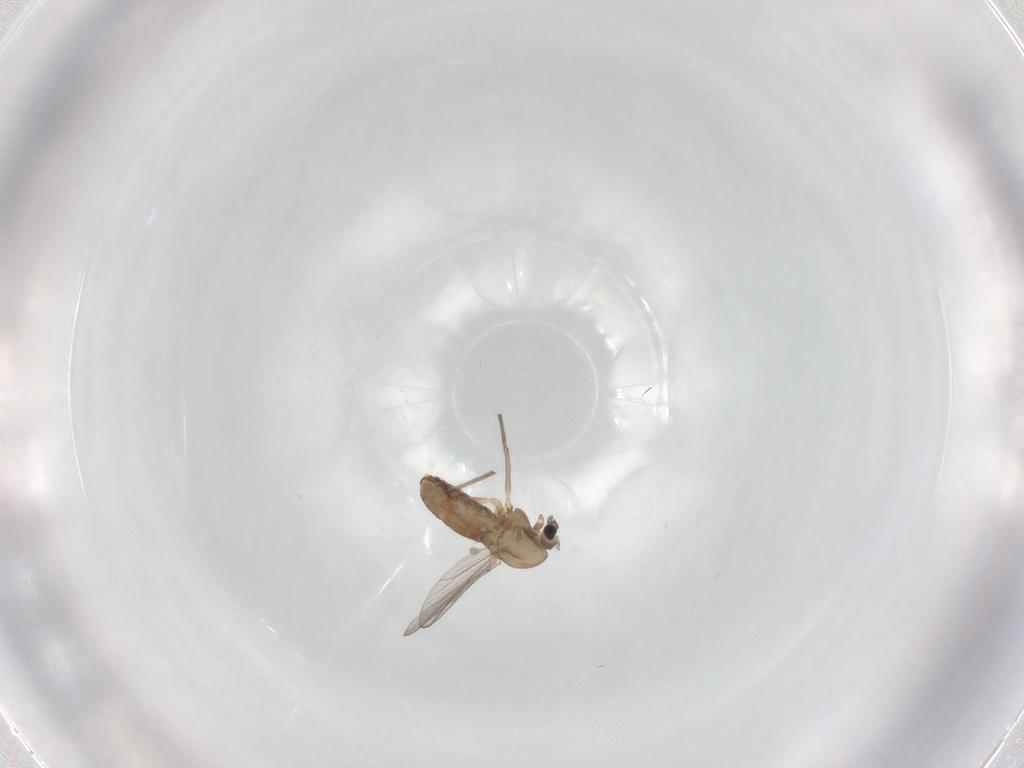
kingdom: Animalia
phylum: Arthropoda
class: Insecta
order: Diptera
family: Chironomidae
